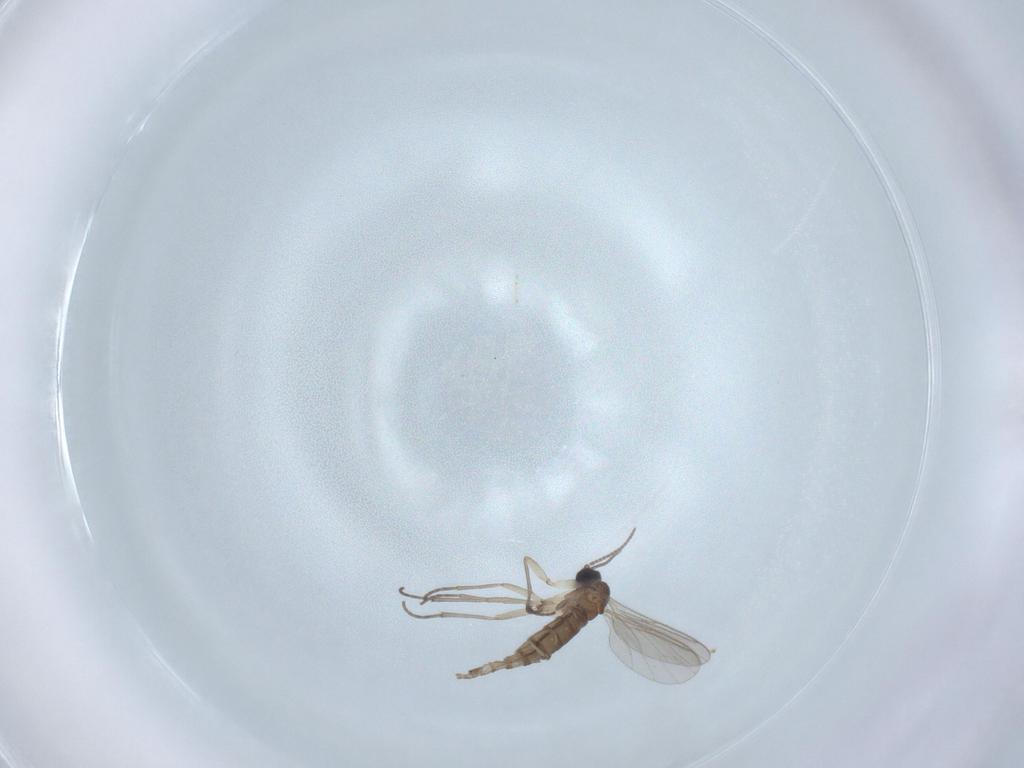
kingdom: Animalia
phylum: Arthropoda
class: Insecta
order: Diptera
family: Sciaridae
